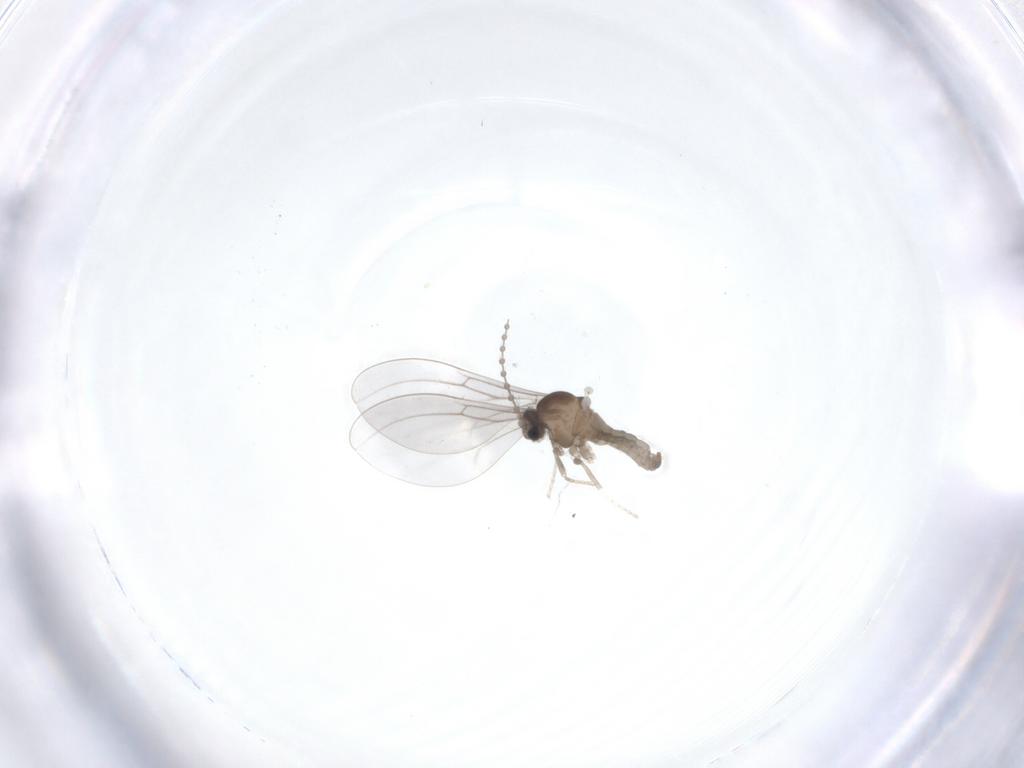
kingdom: Animalia
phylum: Arthropoda
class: Insecta
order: Diptera
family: Cecidomyiidae
